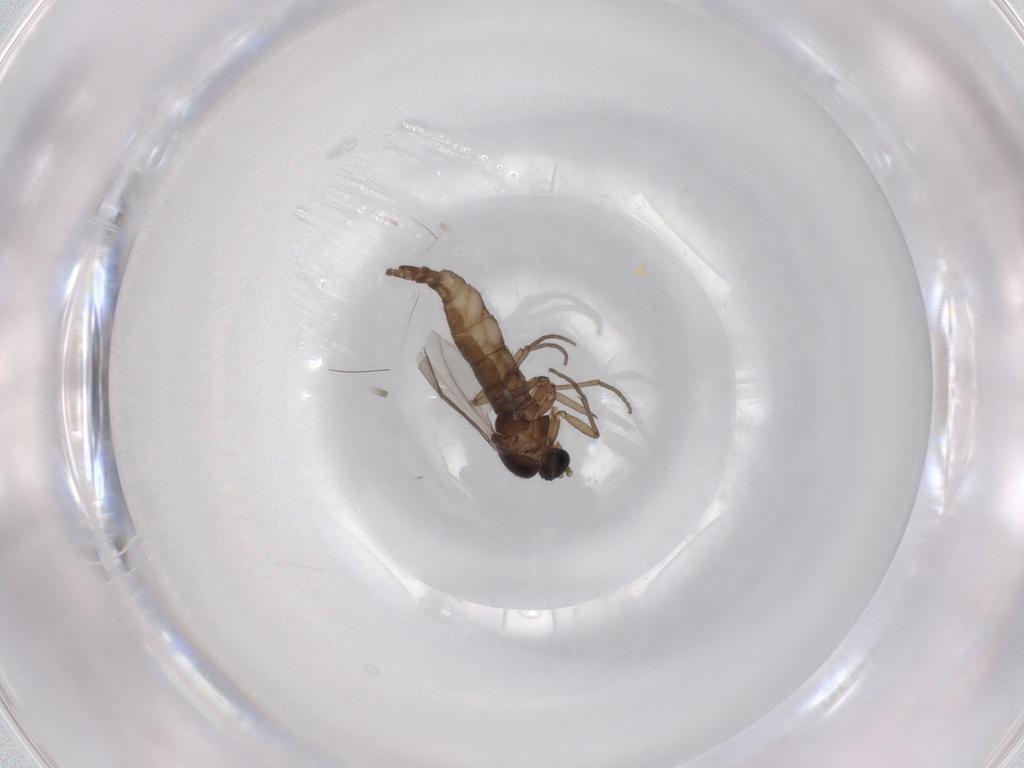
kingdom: Animalia
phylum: Arthropoda
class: Insecta
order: Diptera
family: Sciaridae
